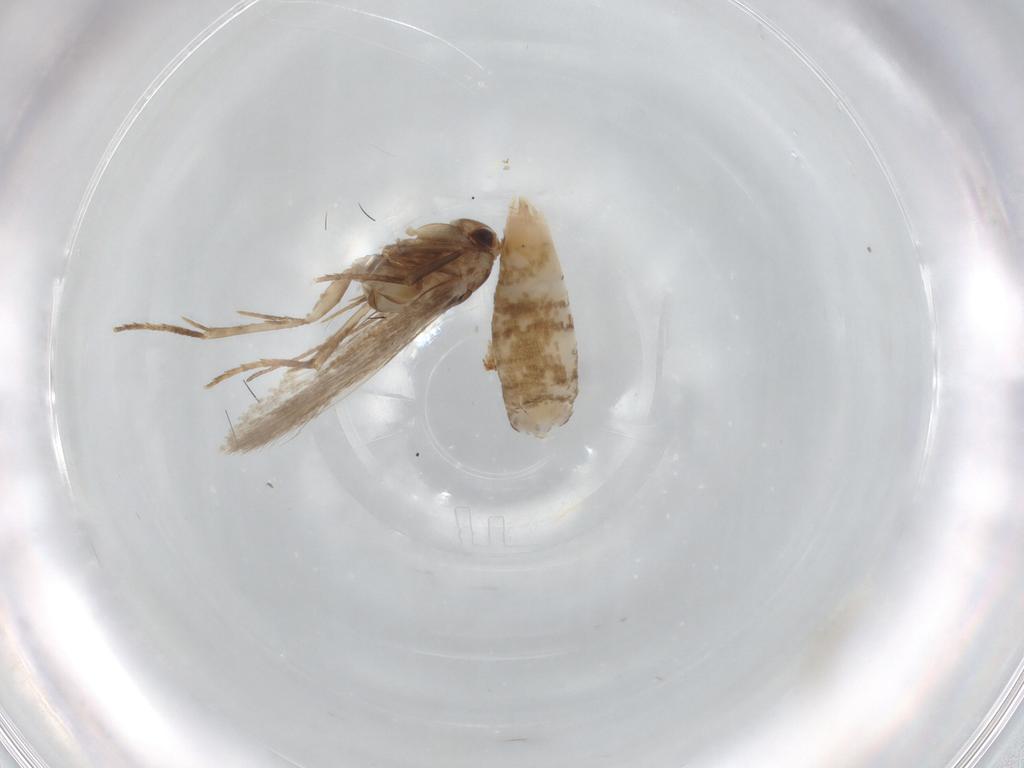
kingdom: Animalia
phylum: Arthropoda
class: Insecta
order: Lepidoptera
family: Bucculatricidae
